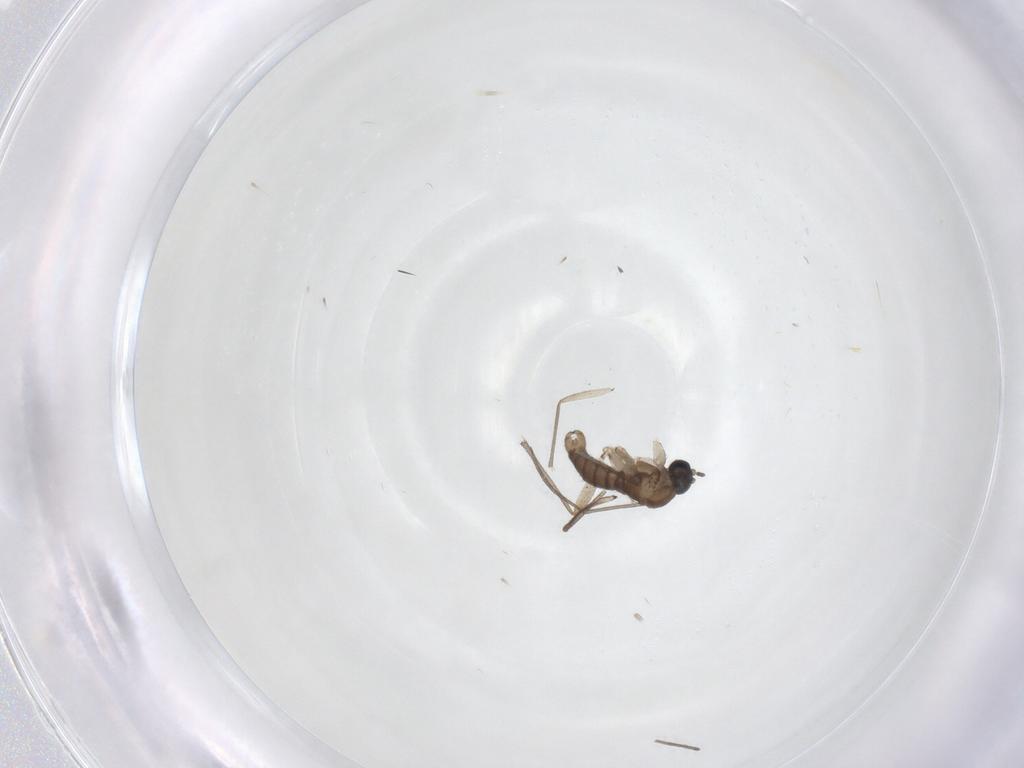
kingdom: Animalia
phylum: Arthropoda
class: Insecta
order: Diptera
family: Sciaridae
